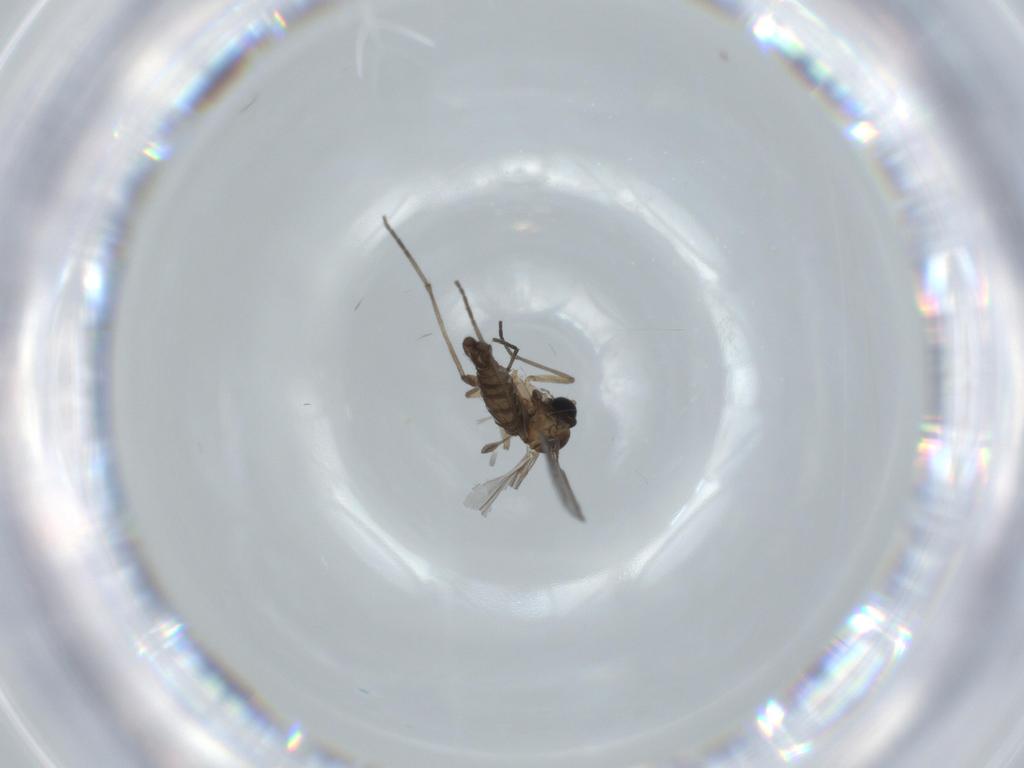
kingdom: Animalia
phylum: Arthropoda
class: Insecta
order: Diptera
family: Sciaridae
